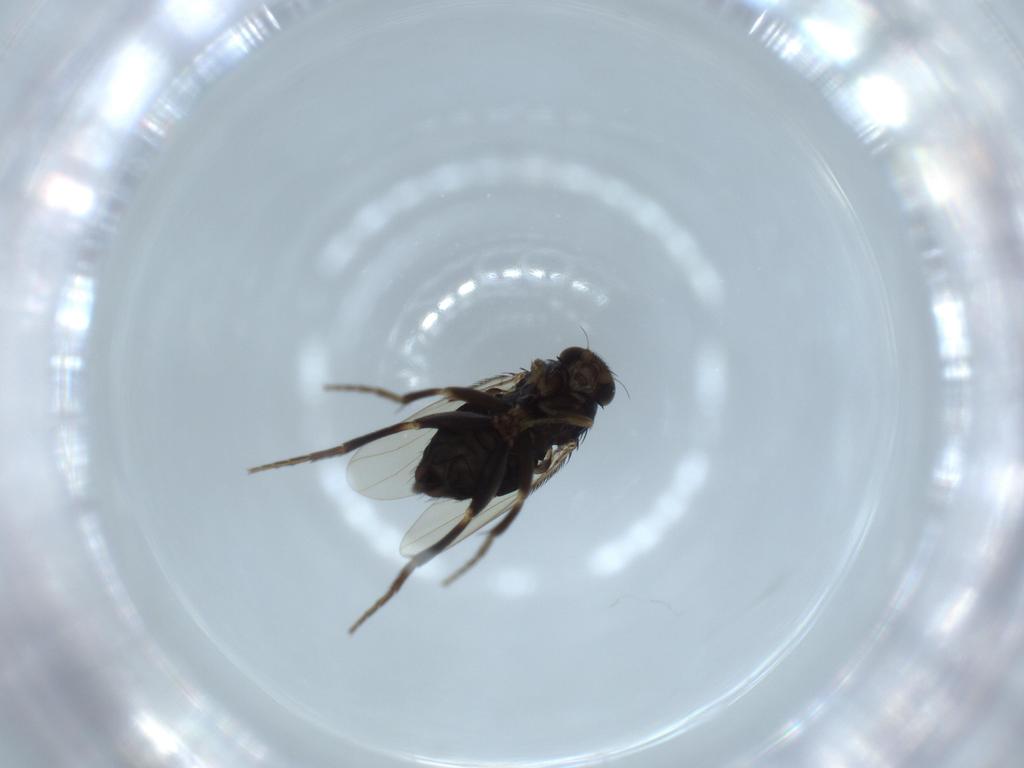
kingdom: Animalia
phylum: Arthropoda
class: Insecta
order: Diptera
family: Phoridae
